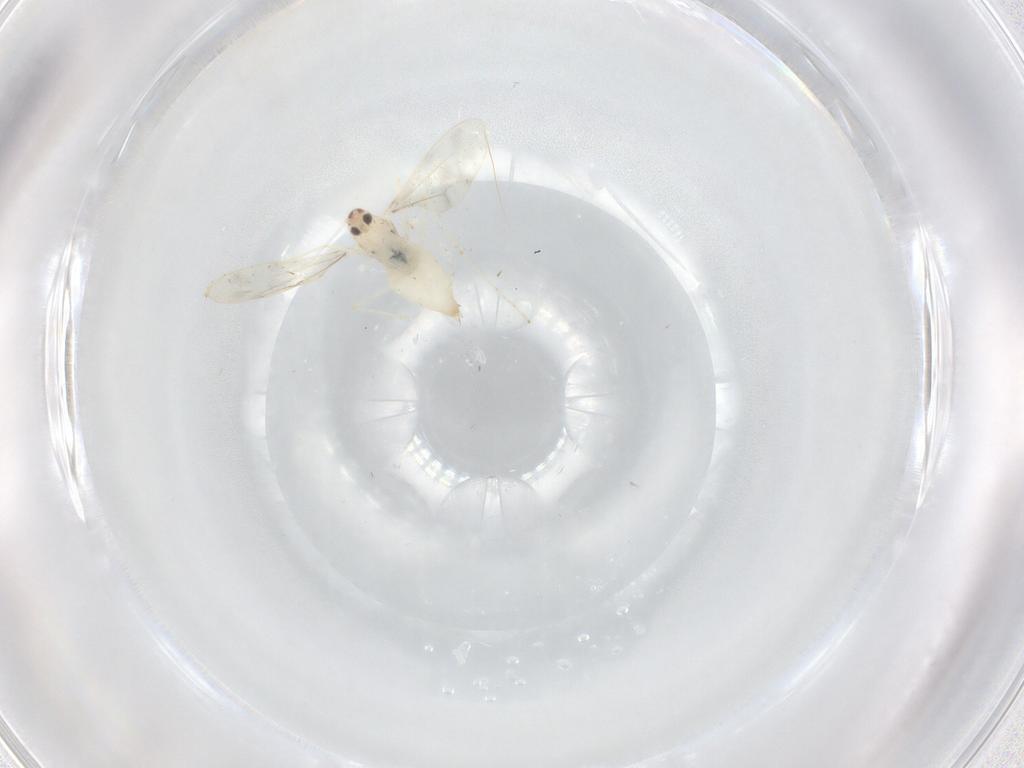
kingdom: Animalia
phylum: Arthropoda
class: Insecta
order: Diptera
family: Cecidomyiidae
